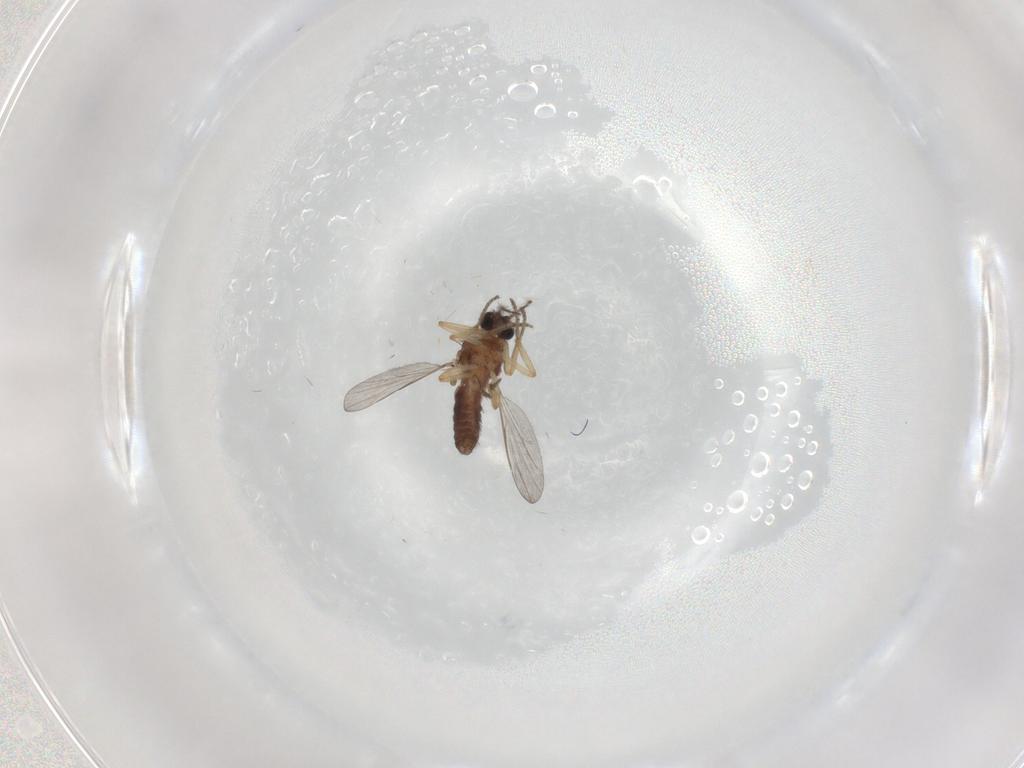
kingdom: Animalia
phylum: Arthropoda
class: Insecta
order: Diptera
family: Ceratopogonidae
